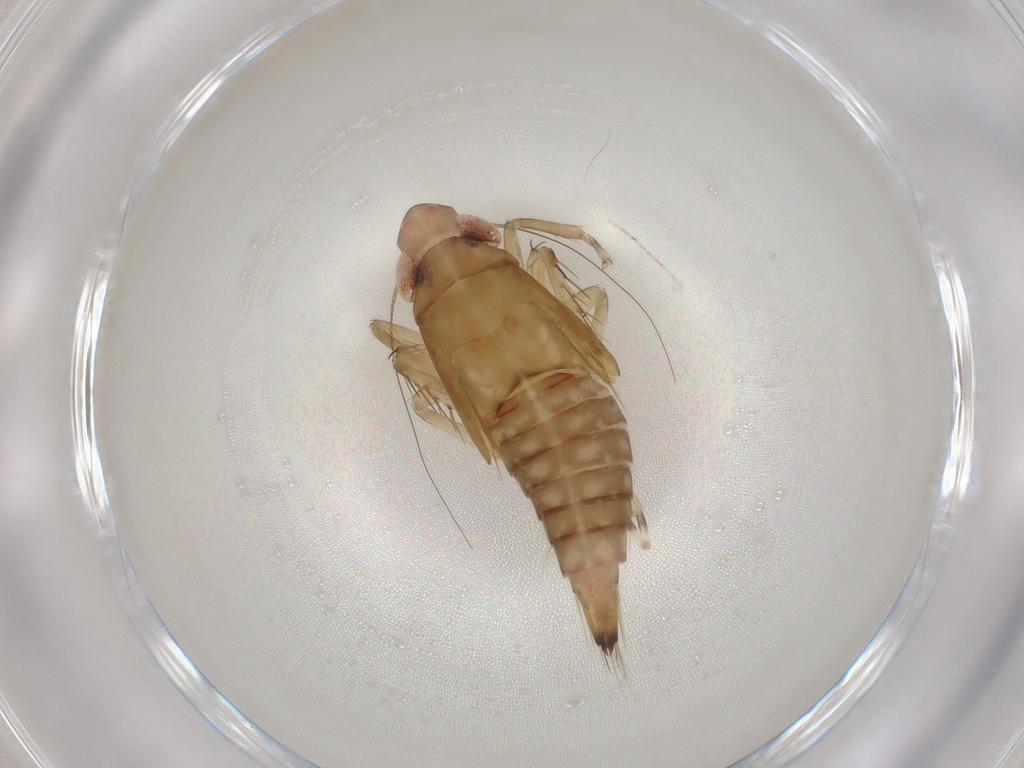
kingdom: Animalia
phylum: Arthropoda
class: Insecta
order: Hemiptera
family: Cicadellidae
